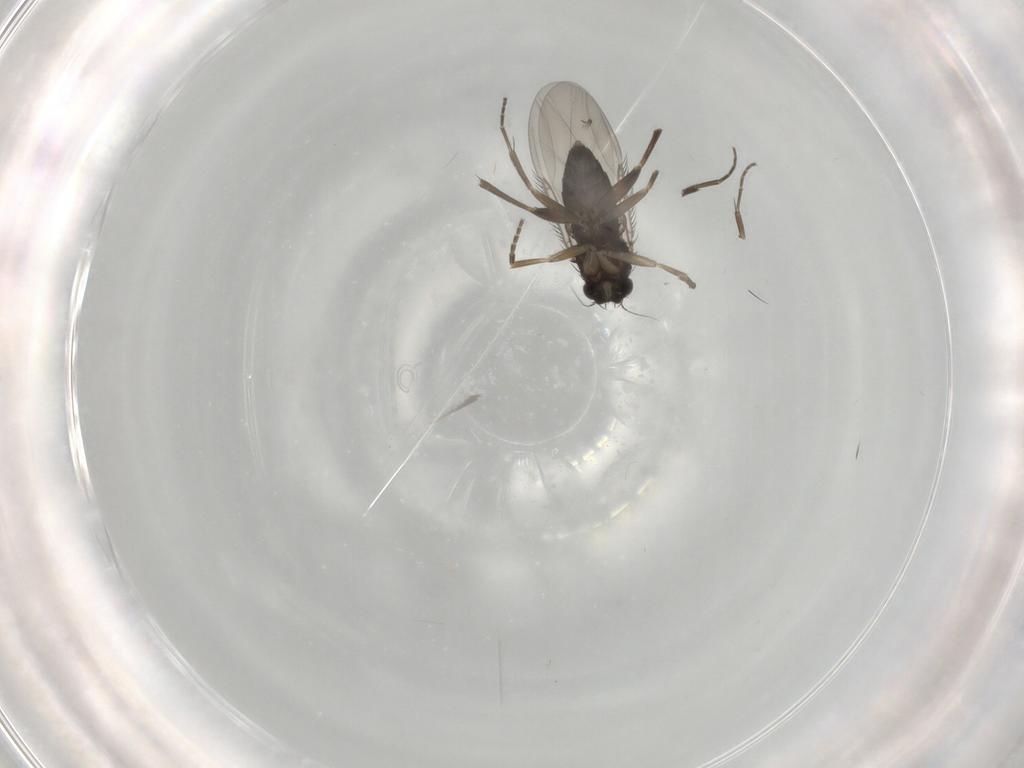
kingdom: Animalia
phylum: Arthropoda
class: Insecta
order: Diptera
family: Phoridae
